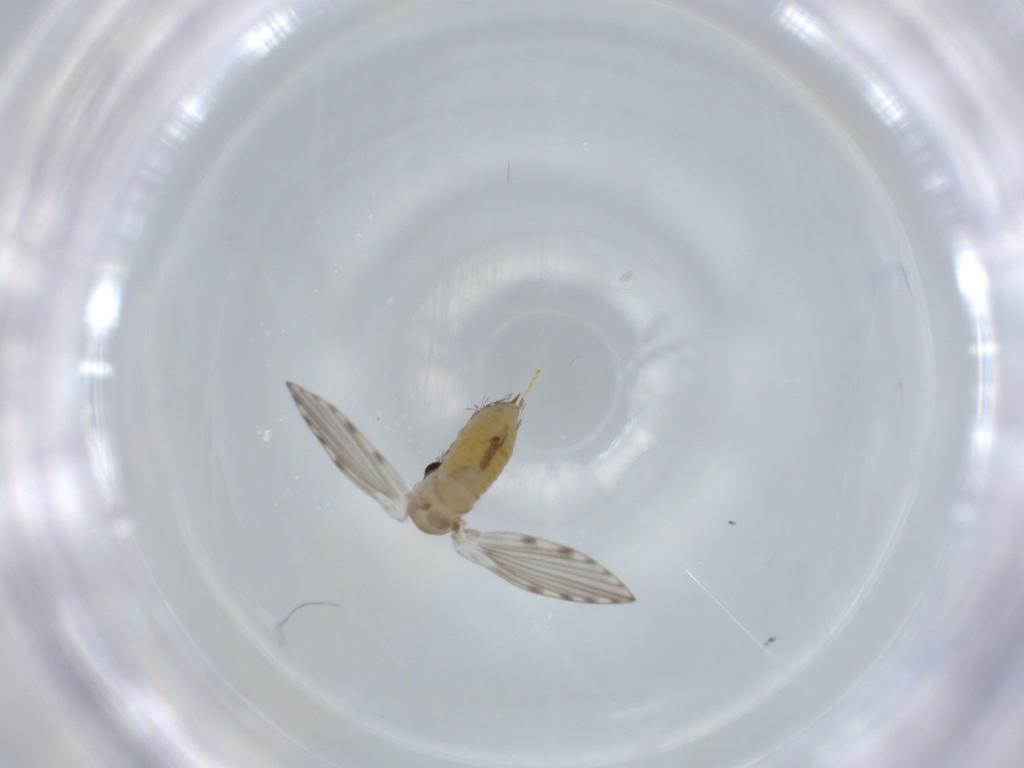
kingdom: Animalia
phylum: Arthropoda
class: Insecta
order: Diptera
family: Psychodidae
